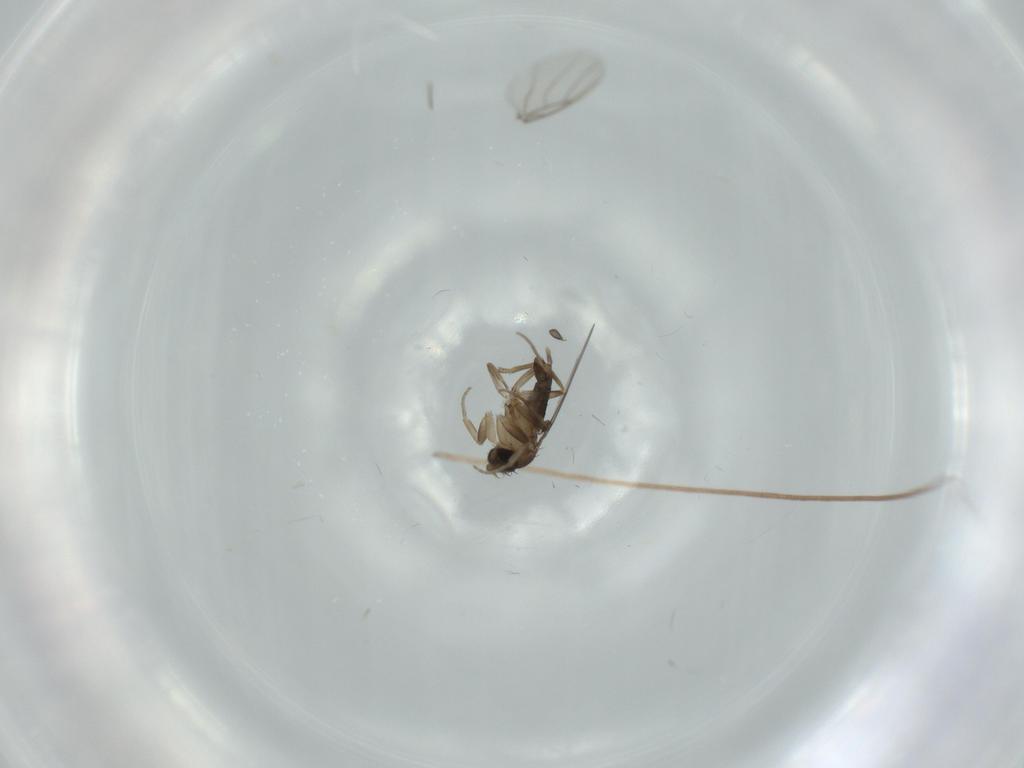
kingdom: Animalia
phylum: Arthropoda
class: Insecta
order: Diptera
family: Phoridae
